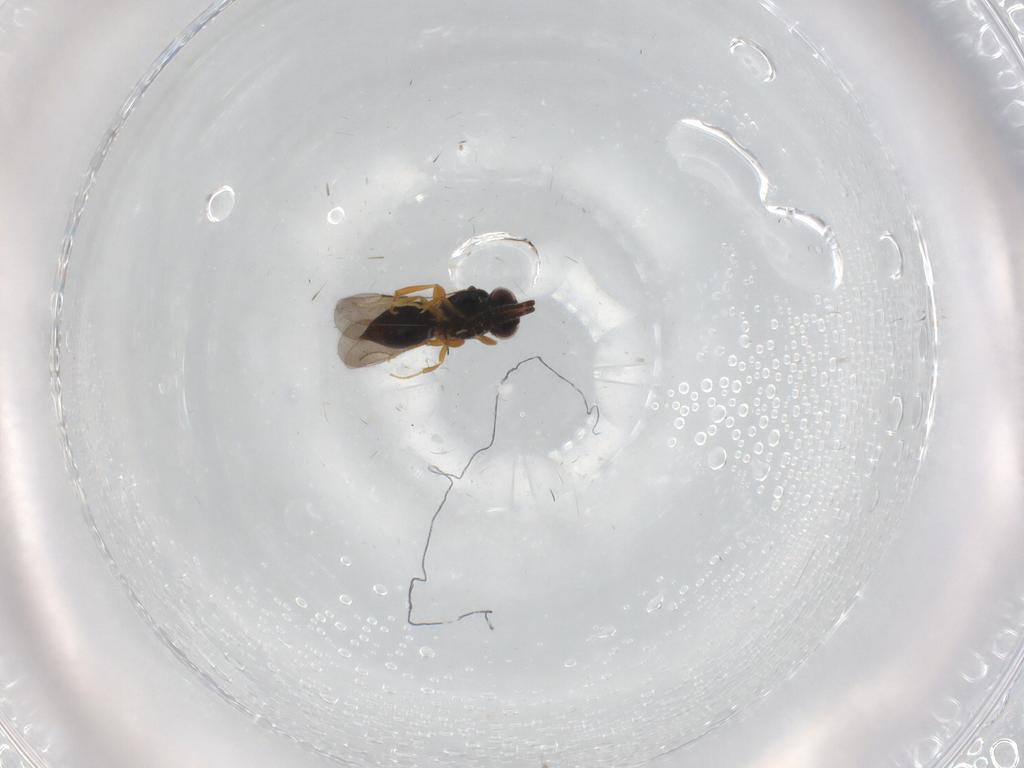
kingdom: Animalia
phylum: Arthropoda
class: Insecta
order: Hymenoptera
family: Ceraphronidae
